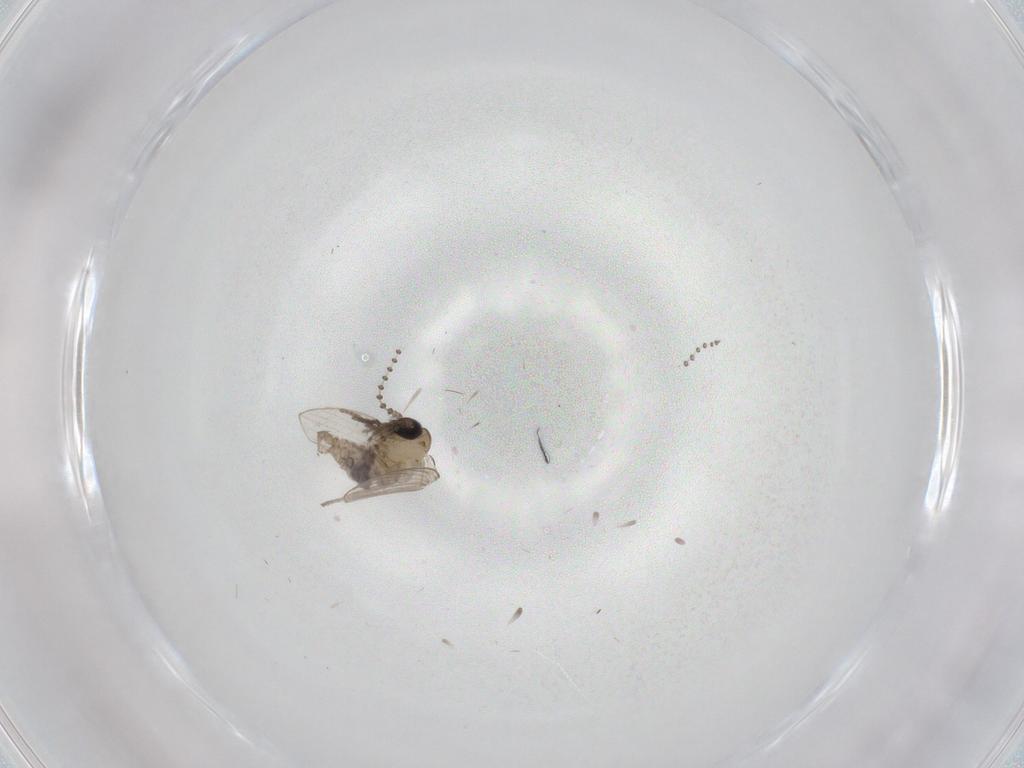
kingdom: Animalia
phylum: Arthropoda
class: Insecta
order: Diptera
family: Psychodidae
